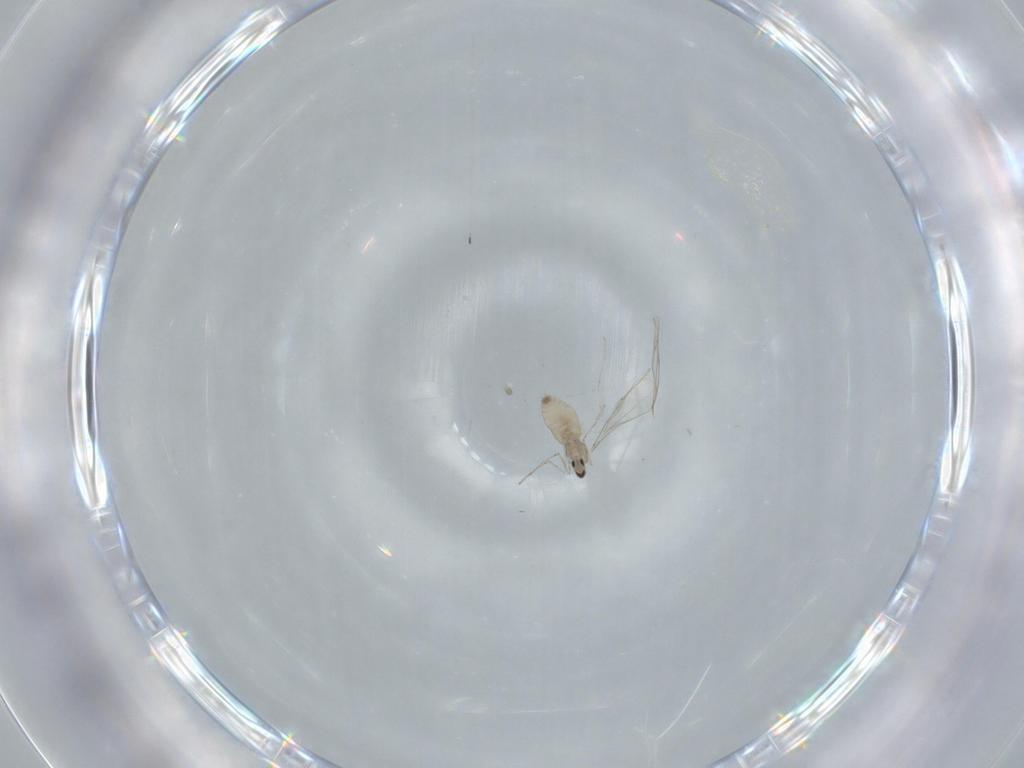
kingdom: Animalia
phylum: Arthropoda
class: Insecta
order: Diptera
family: Cecidomyiidae
